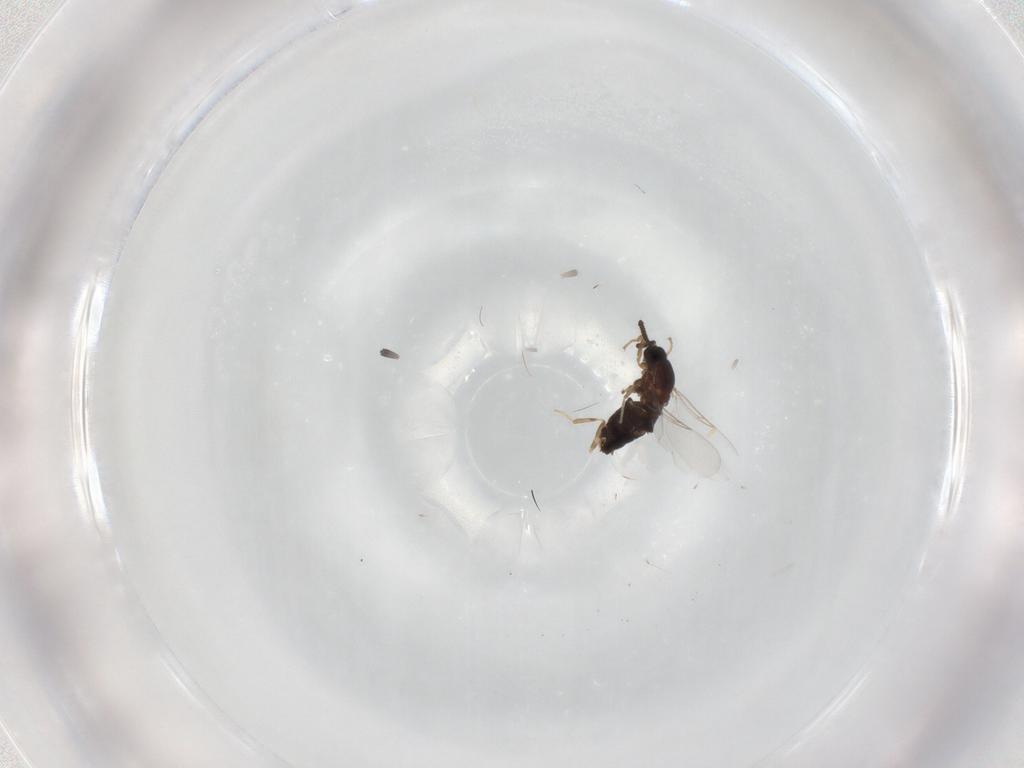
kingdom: Animalia
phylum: Arthropoda
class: Insecta
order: Diptera
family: Scatopsidae
